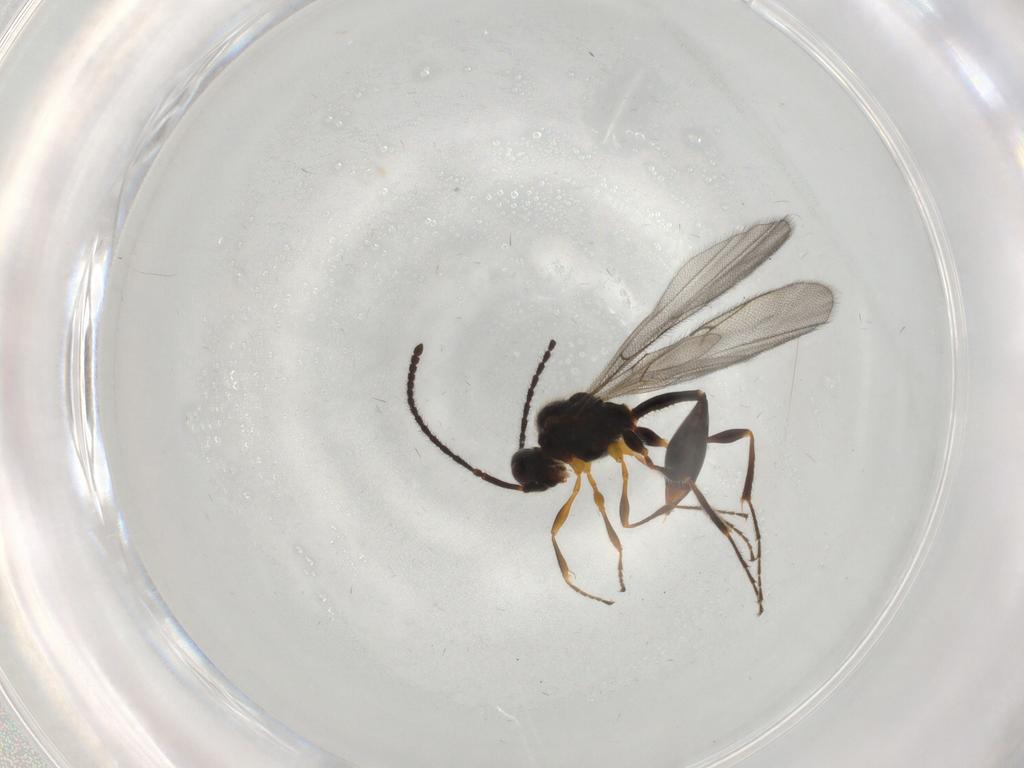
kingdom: Animalia
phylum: Arthropoda
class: Insecta
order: Hymenoptera
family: Diapriidae
